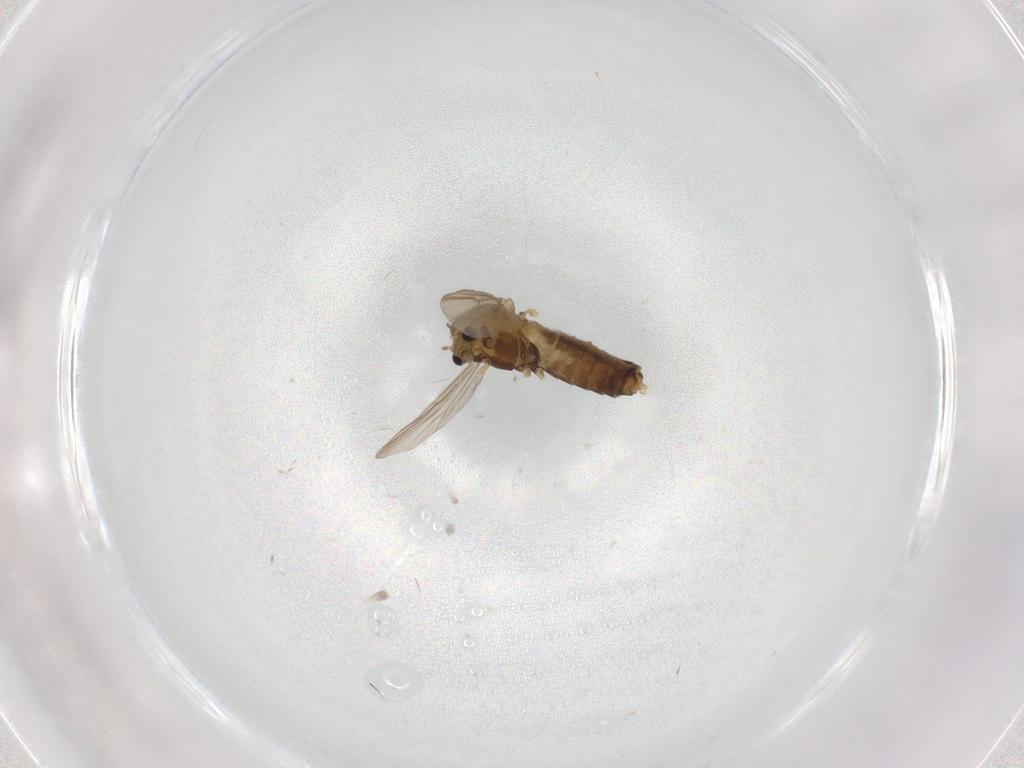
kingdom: Animalia
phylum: Arthropoda
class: Insecta
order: Diptera
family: Chironomidae
